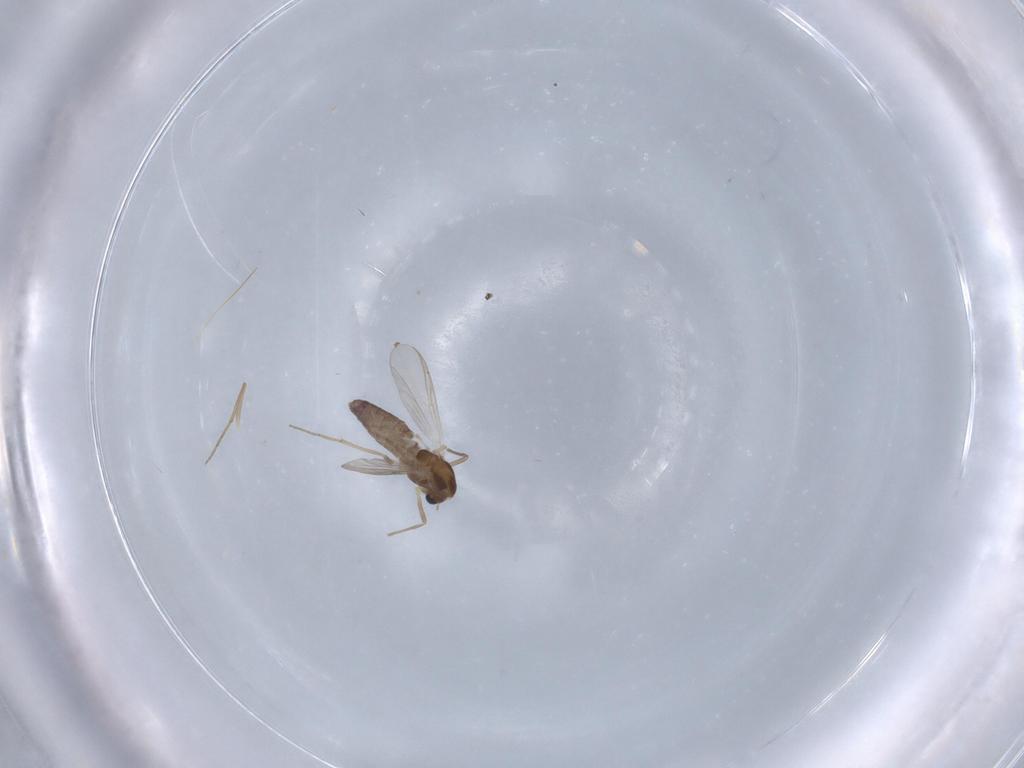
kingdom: Animalia
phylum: Arthropoda
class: Insecta
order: Diptera
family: Chironomidae
